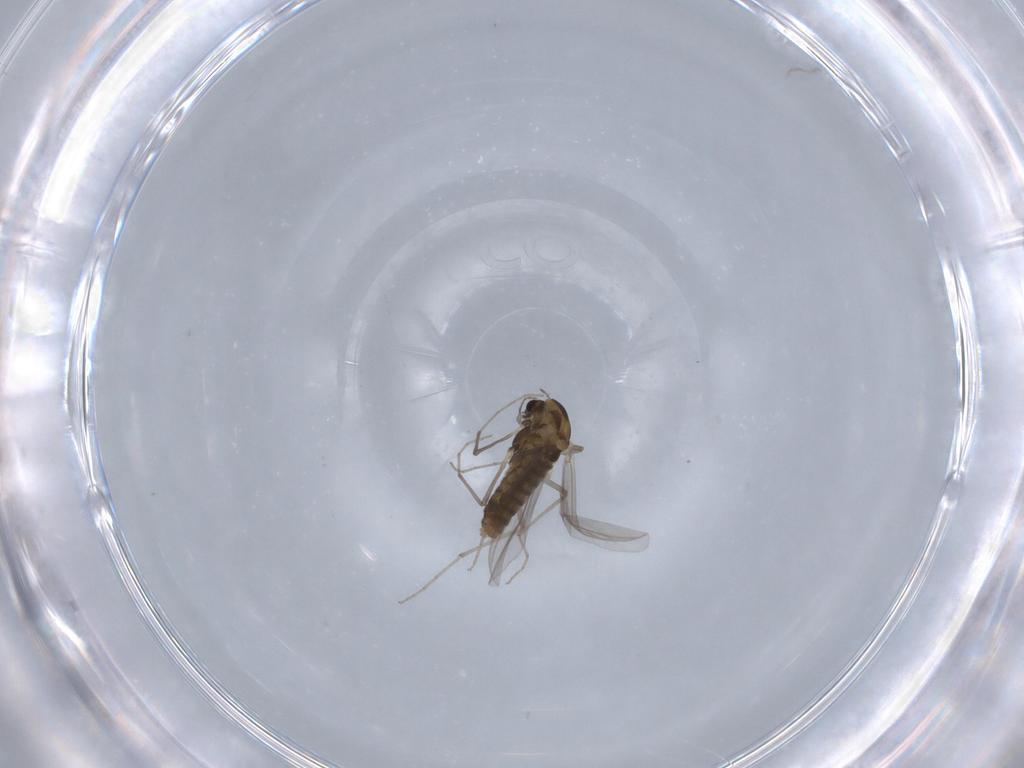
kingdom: Animalia
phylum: Arthropoda
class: Insecta
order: Diptera
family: Chironomidae
